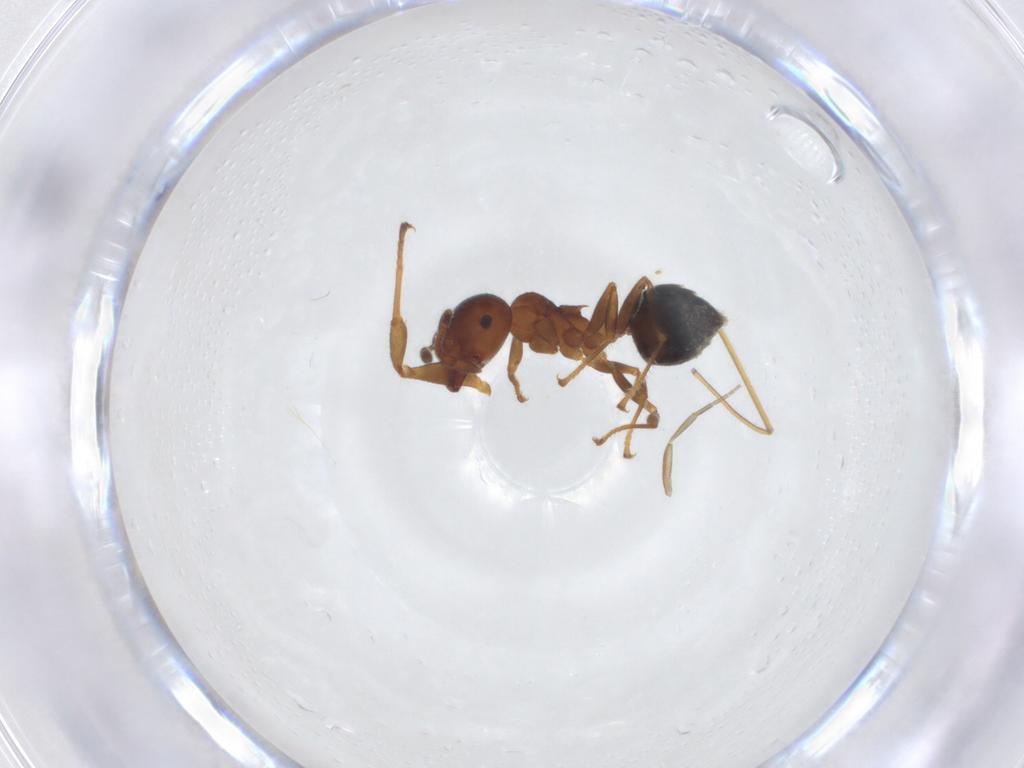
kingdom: Animalia
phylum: Arthropoda
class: Insecta
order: Hymenoptera
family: Formicidae
